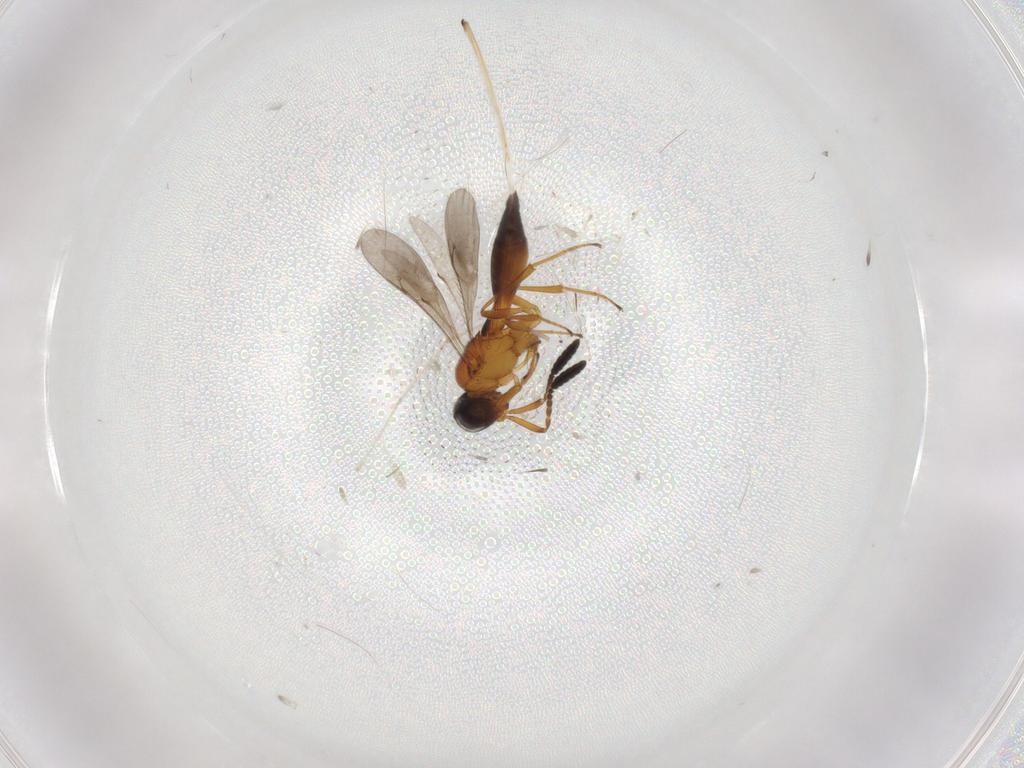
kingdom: Animalia
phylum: Arthropoda
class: Insecta
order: Hymenoptera
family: Scelionidae
